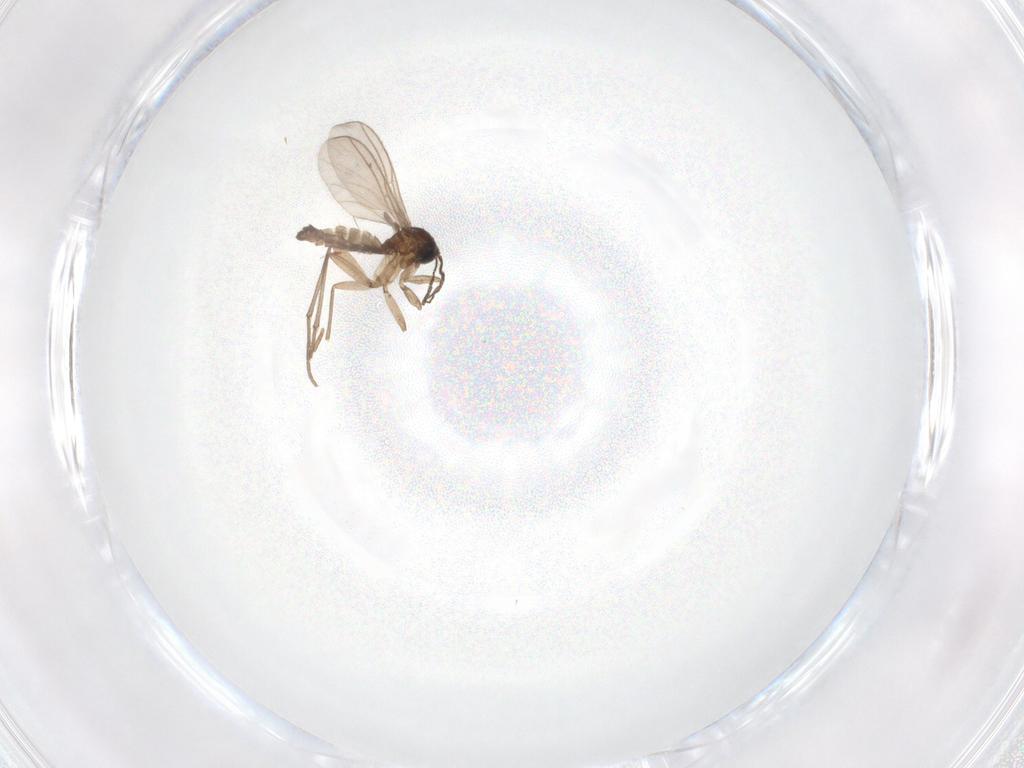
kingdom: Animalia
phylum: Arthropoda
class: Insecta
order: Diptera
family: Sciaridae
